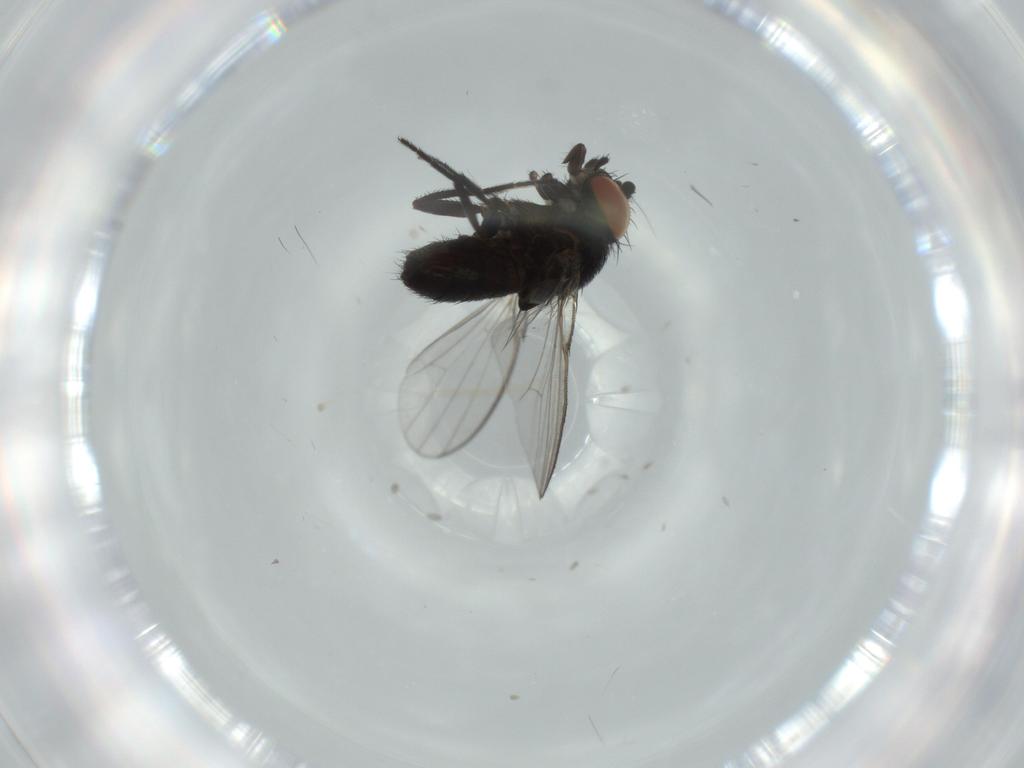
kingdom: Animalia
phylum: Arthropoda
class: Insecta
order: Diptera
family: Milichiidae
